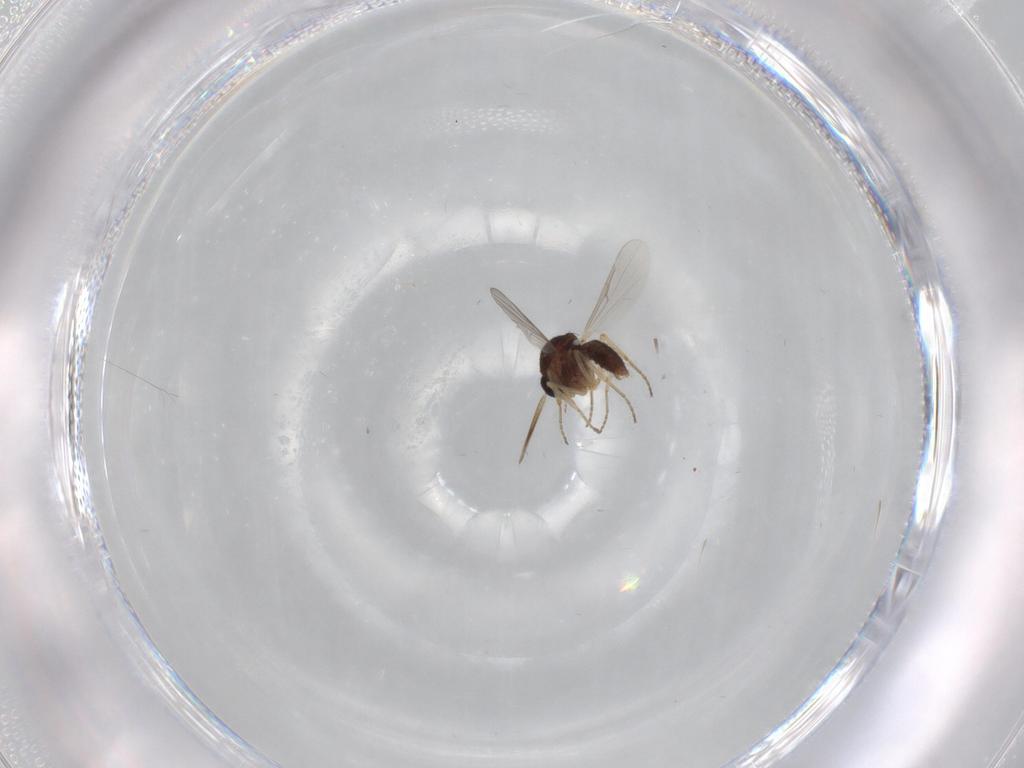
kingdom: Animalia
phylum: Arthropoda
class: Insecta
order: Diptera
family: Ceratopogonidae
